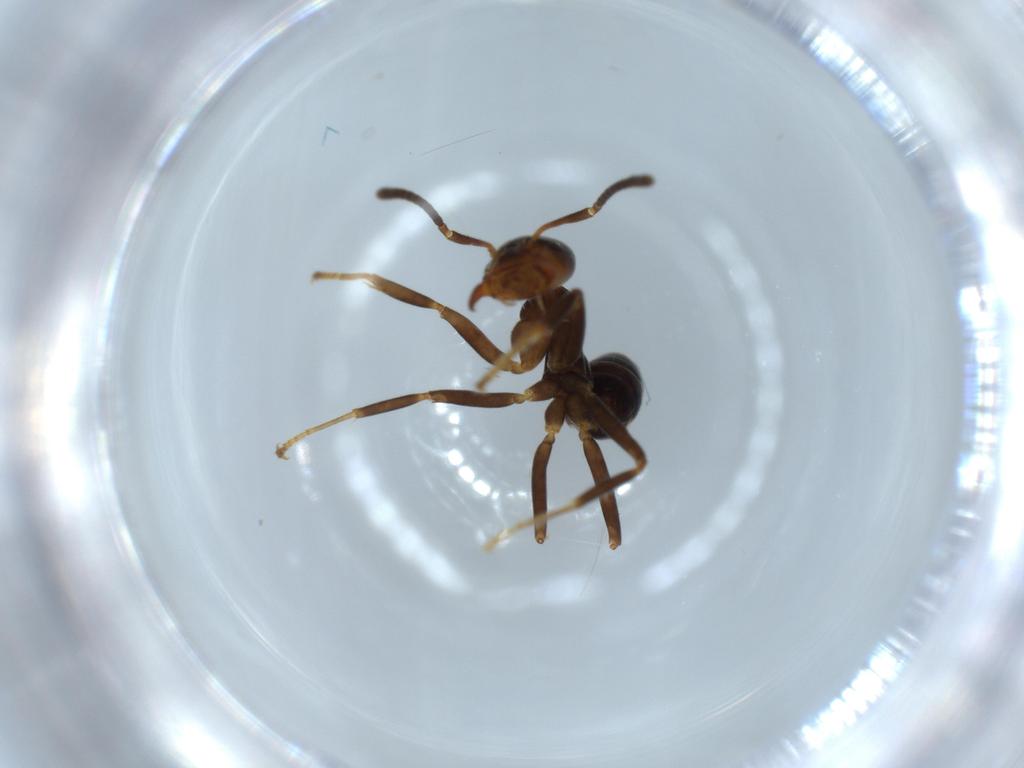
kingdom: Animalia
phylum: Arthropoda
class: Insecta
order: Hymenoptera
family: Formicidae
